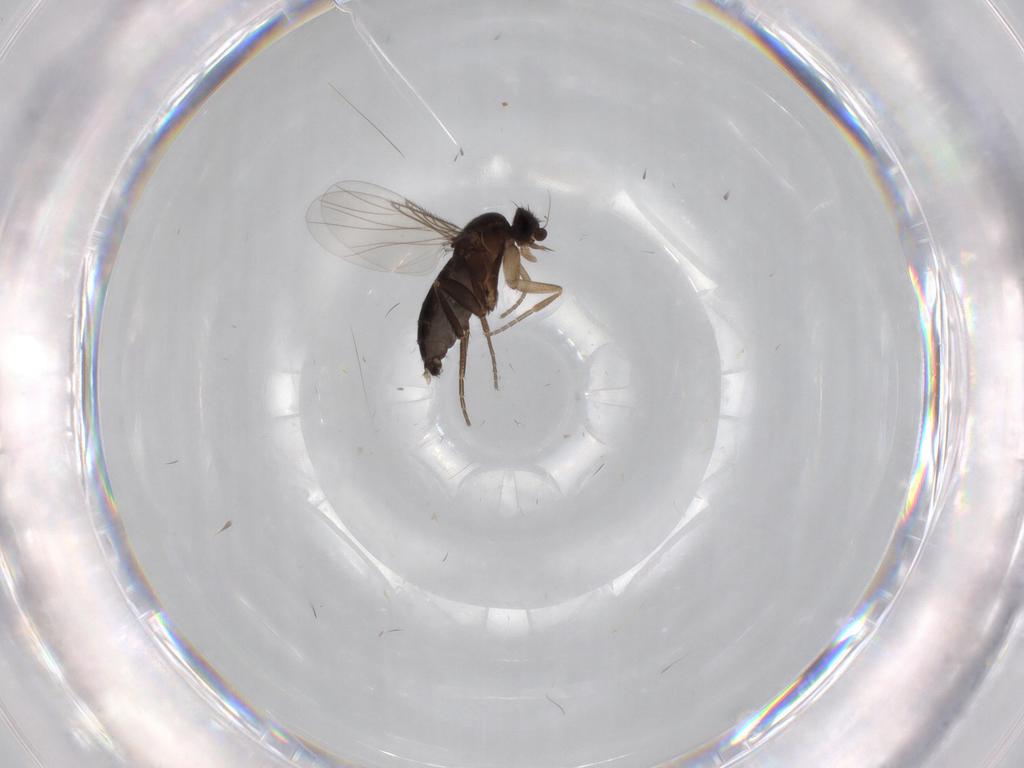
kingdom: Animalia
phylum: Arthropoda
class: Insecta
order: Diptera
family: Phoridae
